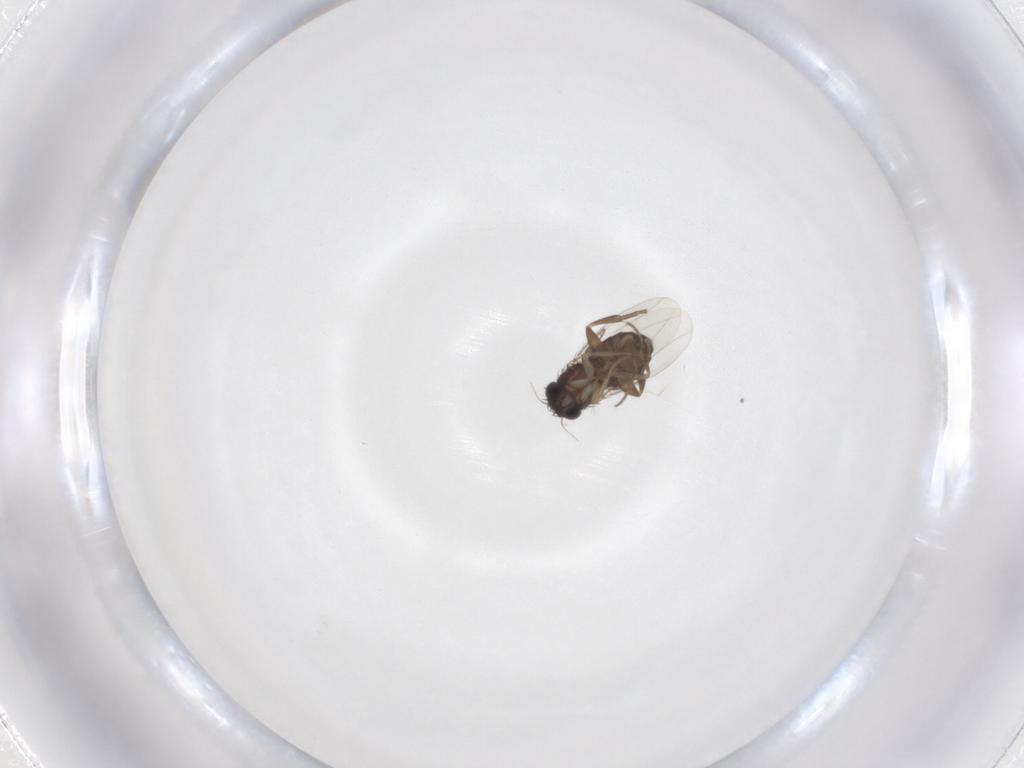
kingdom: Animalia
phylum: Arthropoda
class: Insecta
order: Diptera
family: Phoridae
